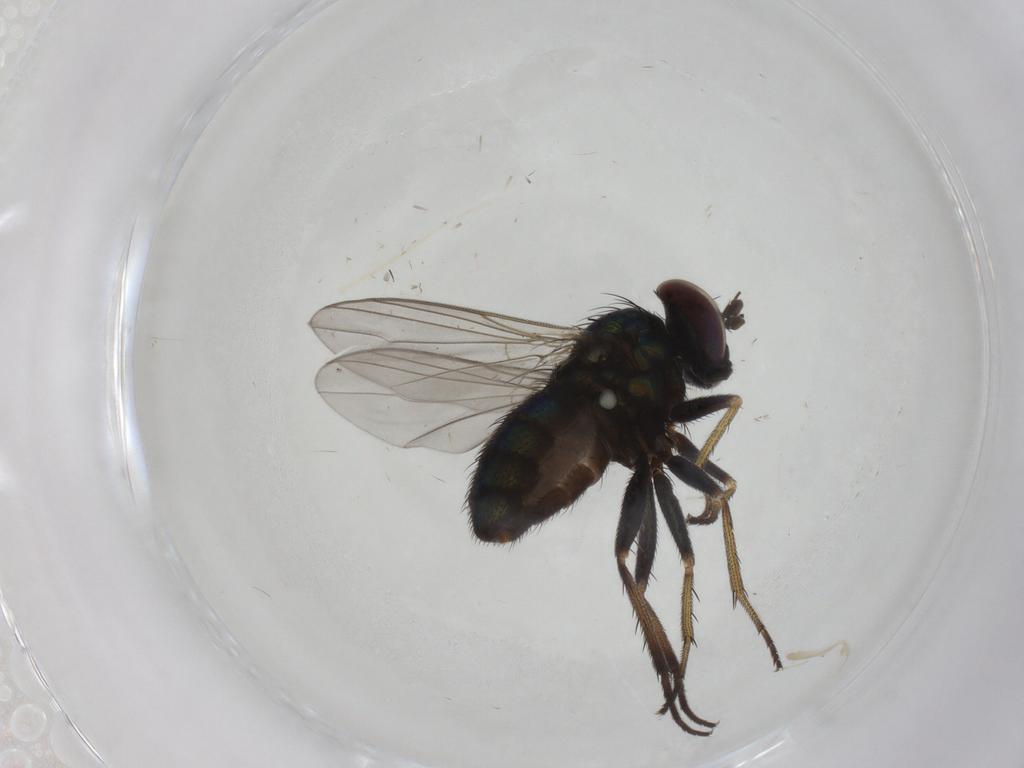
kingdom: Animalia
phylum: Arthropoda
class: Insecta
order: Diptera
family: Dolichopodidae
